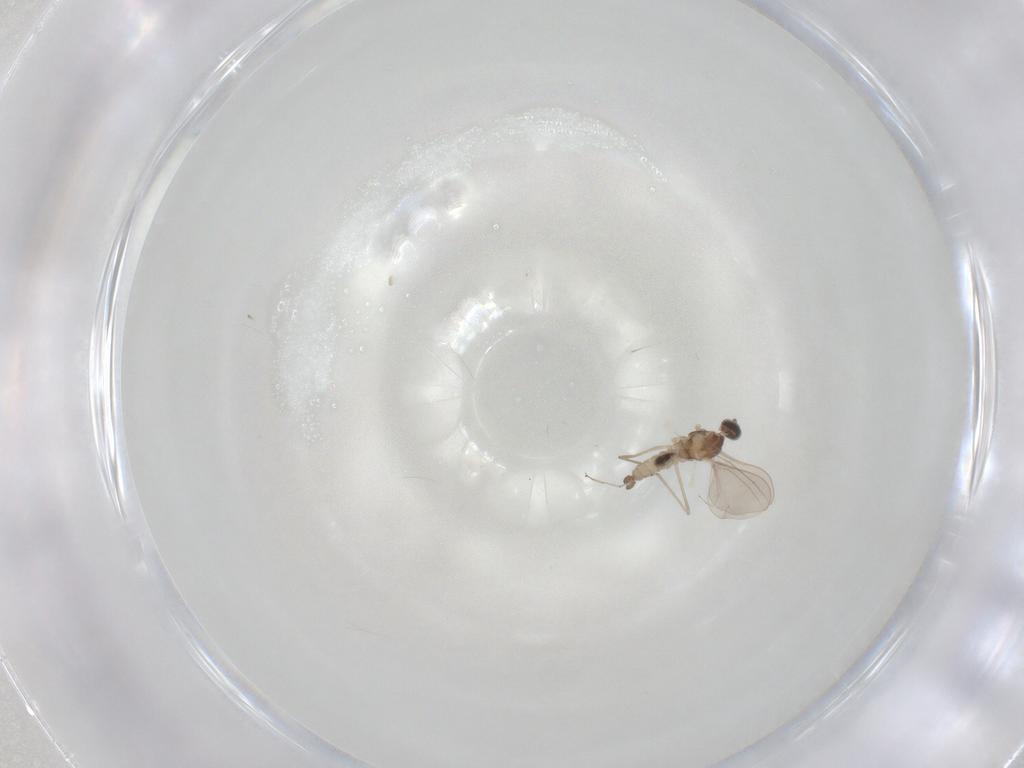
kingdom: Animalia
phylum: Arthropoda
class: Insecta
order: Diptera
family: Cecidomyiidae
